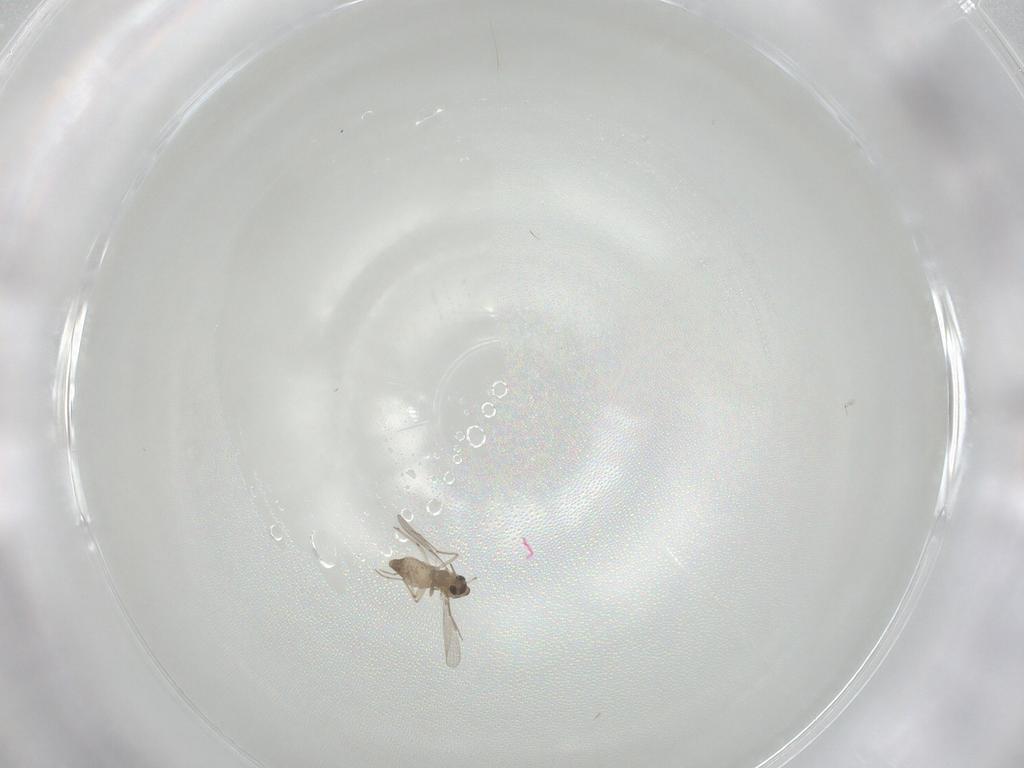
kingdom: Animalia
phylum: Arthropoda
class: Insecta
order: Diptera
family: Chironomidae
